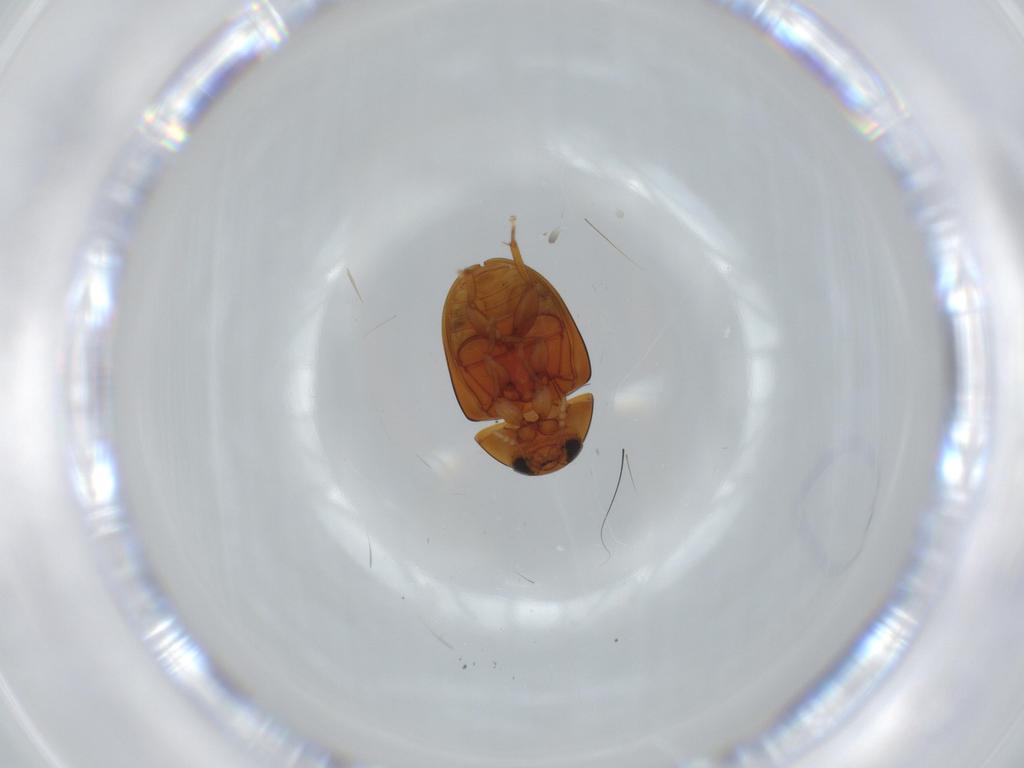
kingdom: Animalia
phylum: Arthropoda
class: Insecta
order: Coleoptera
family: Phalacridae
